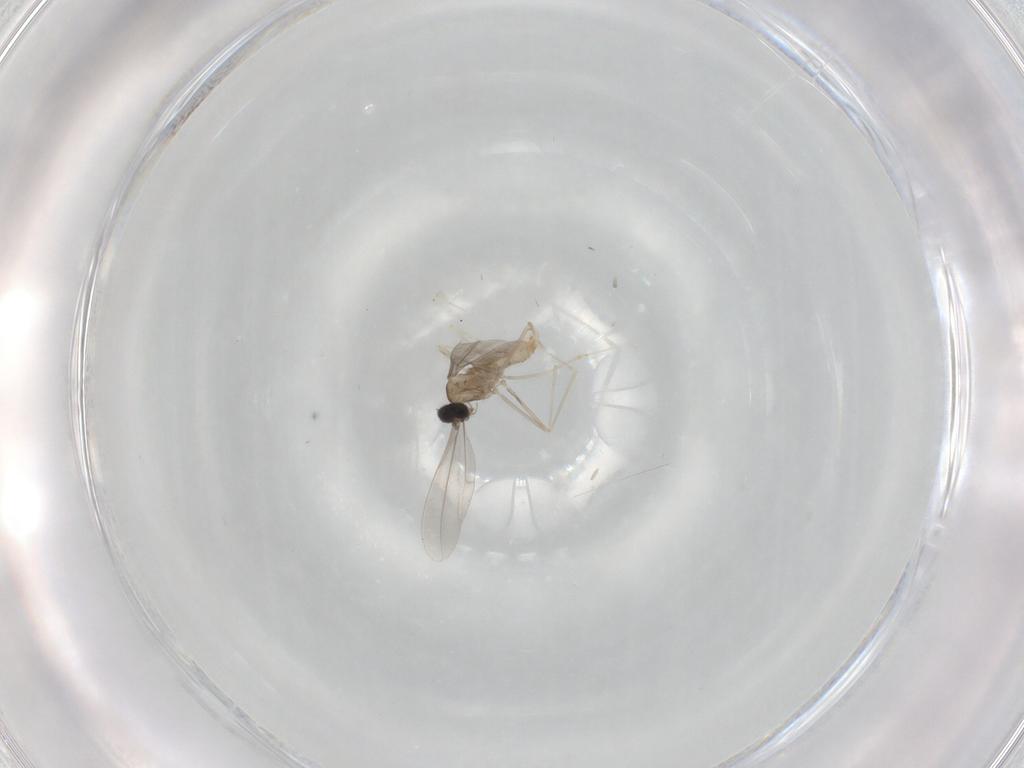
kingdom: Animalia
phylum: Arthropoda
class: Insecta
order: Diptera
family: Cecidomyiidae
